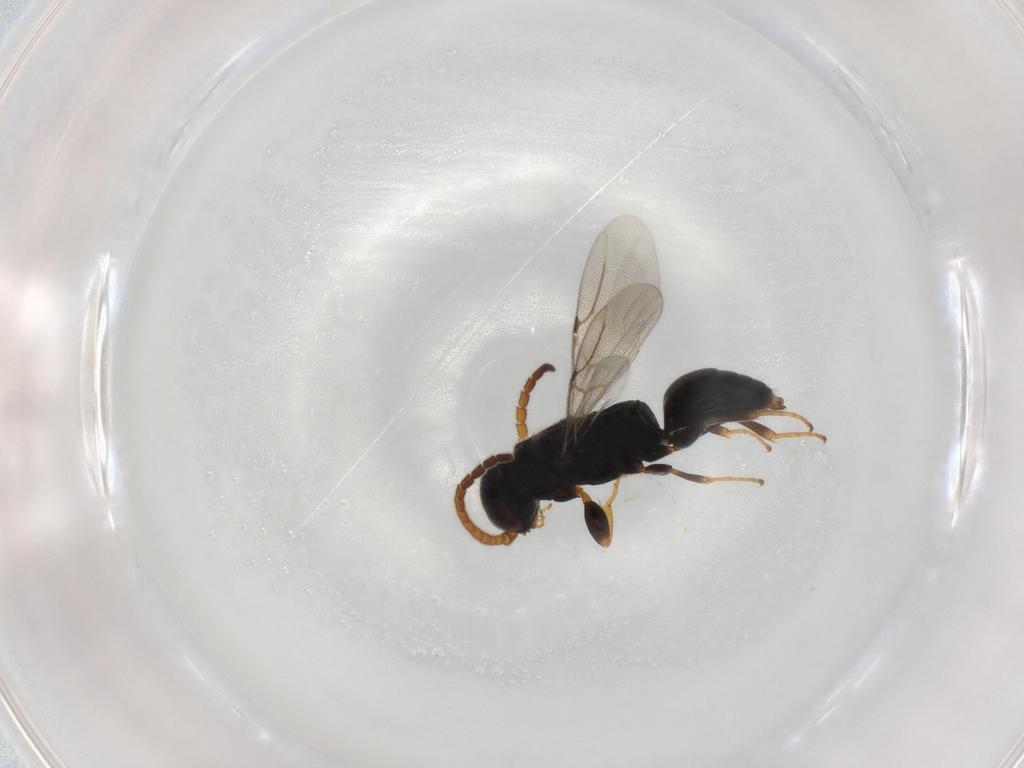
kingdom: Animalia
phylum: Arthropoda
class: Insecta
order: Hymenoptera
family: Bethylidae
